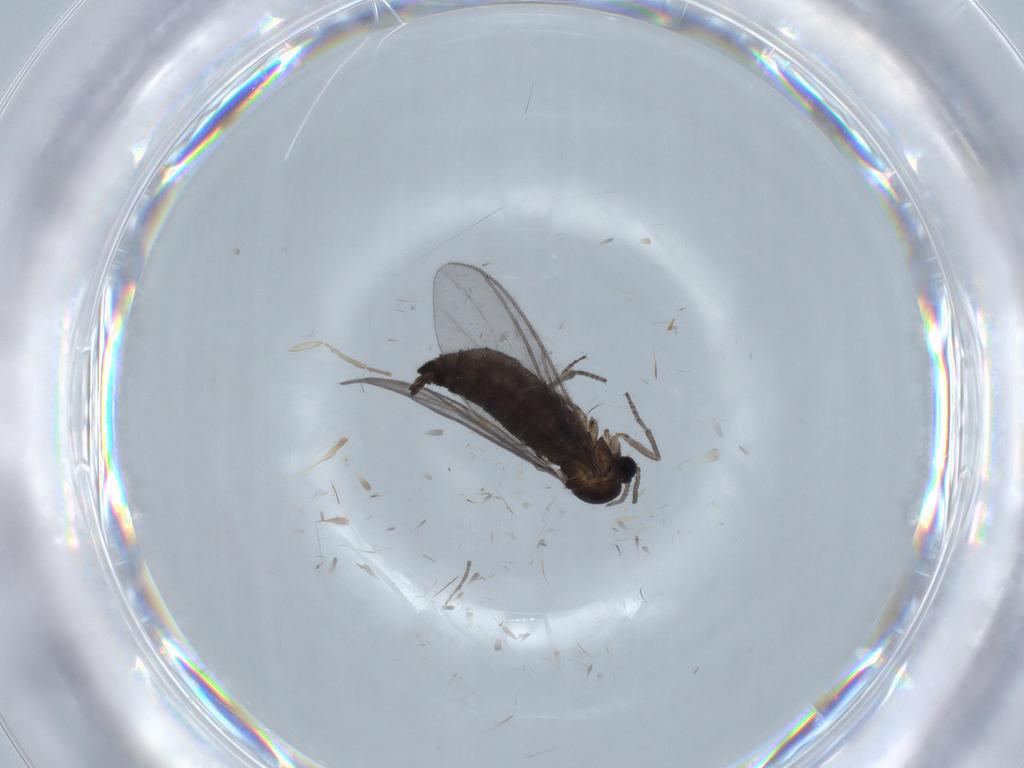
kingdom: Animalia
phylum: Arthropoda
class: Insecta
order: Diptera
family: Sciaridae
